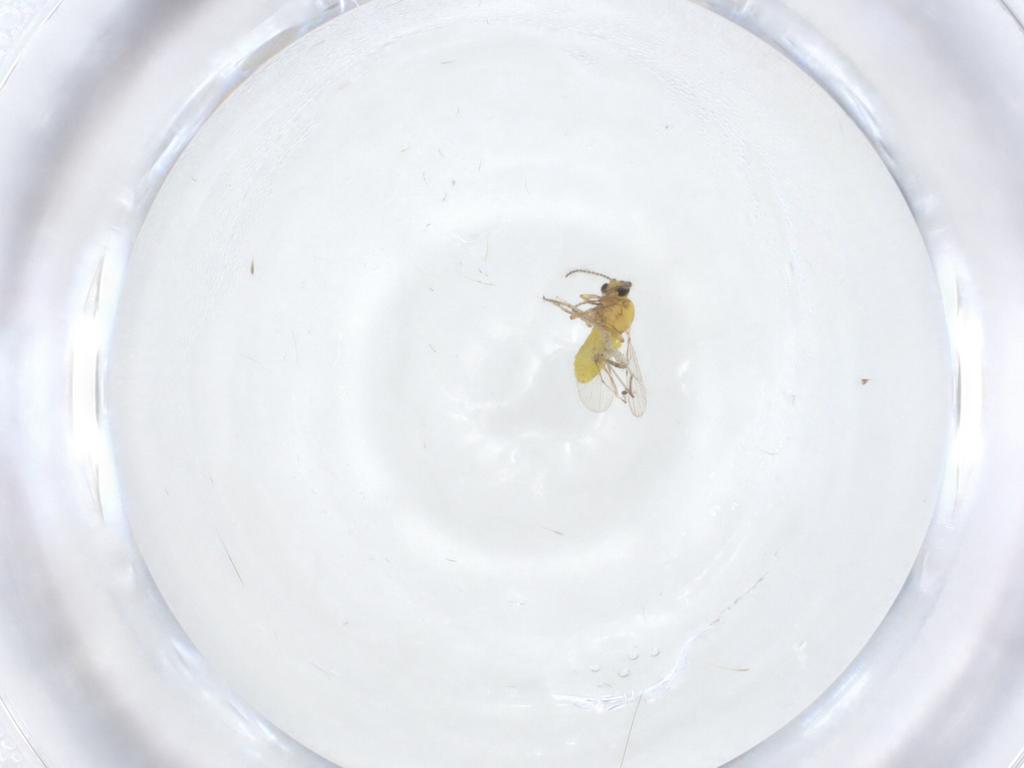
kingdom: Animalia
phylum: Arthropoda
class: Insecta
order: Diptera
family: Ceratopogonidae
